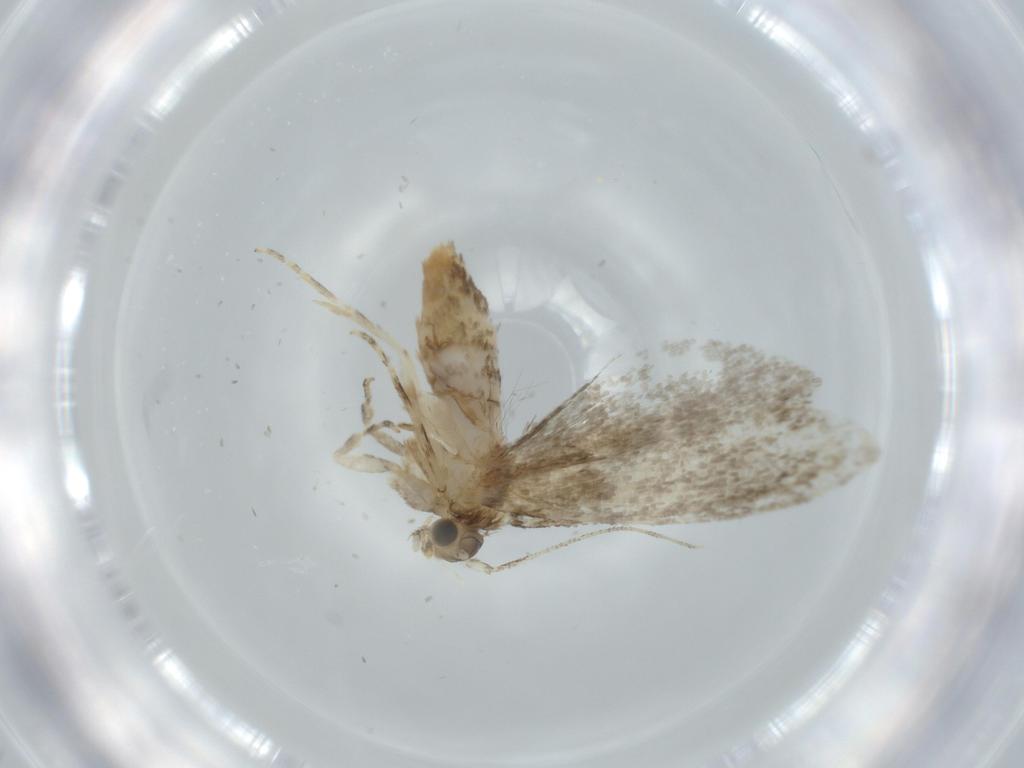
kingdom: Animalia
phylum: Arthropoda
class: Insecta
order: Lepidoptera
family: Tineidae
